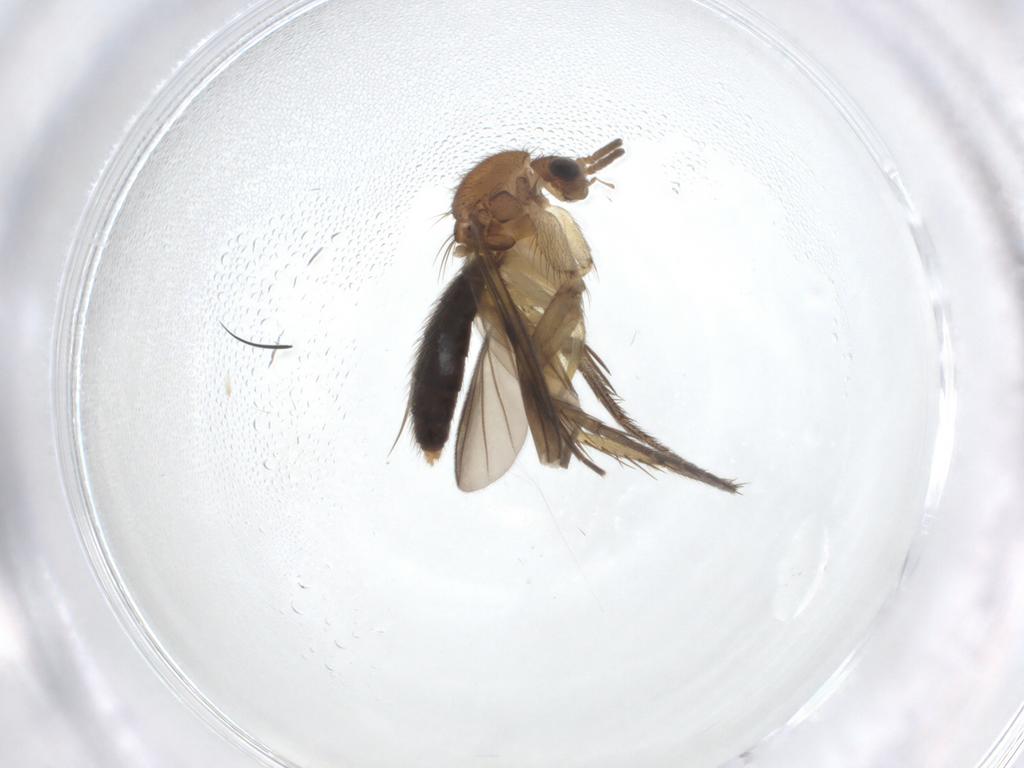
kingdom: Animalia
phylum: Arthropoda
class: Insecta
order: Diptera
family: Chironomidae
